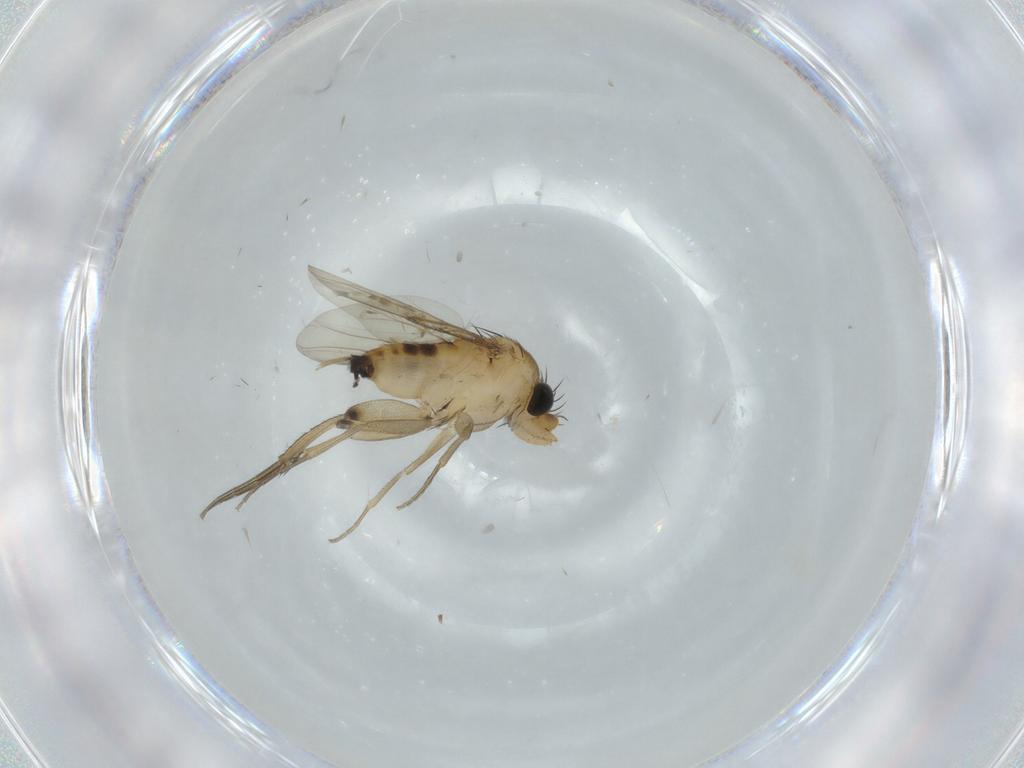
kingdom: Animalia
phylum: Arthropoda
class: Insecta
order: Diptera
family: Phoridae
